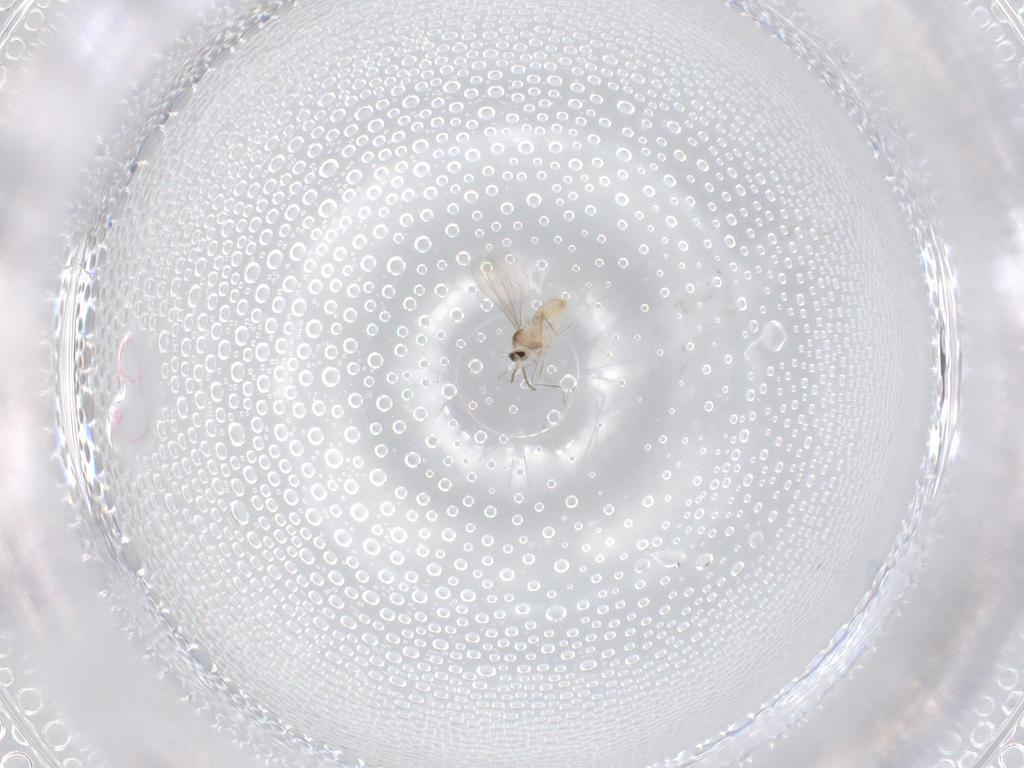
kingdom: Animalia
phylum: Arthropoda
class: Insecta
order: Diptera
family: Cecidomyiidae
